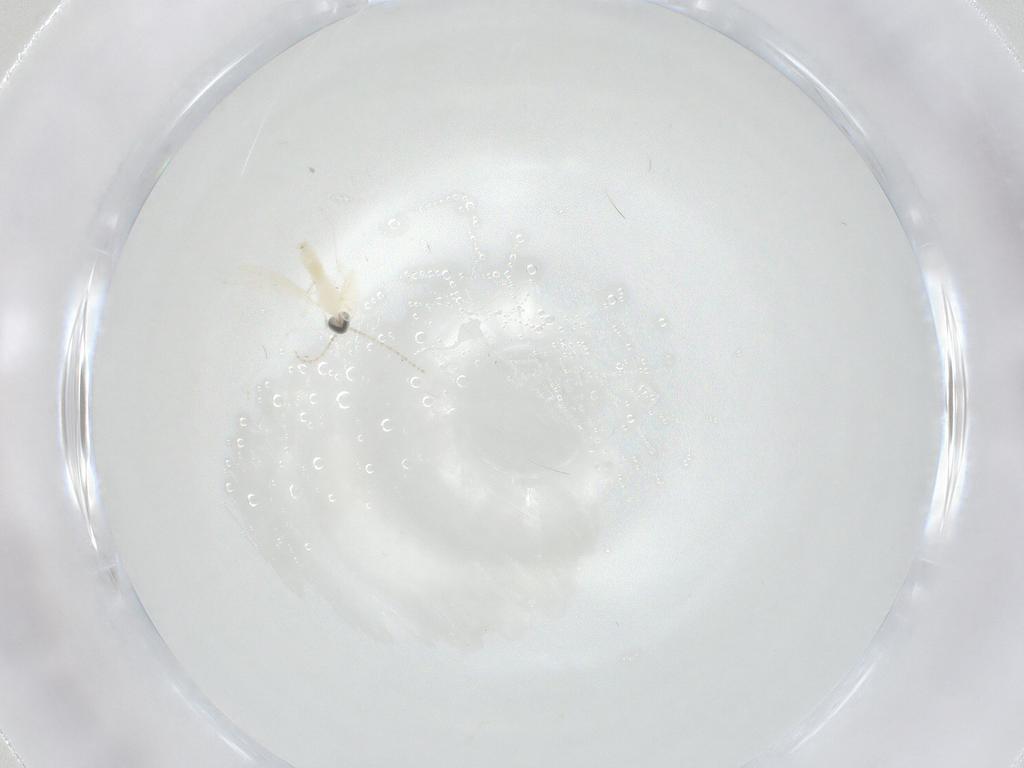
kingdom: Animalia
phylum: Arthropoda
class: Insecta
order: Diptera
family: Cecidomyiidae
